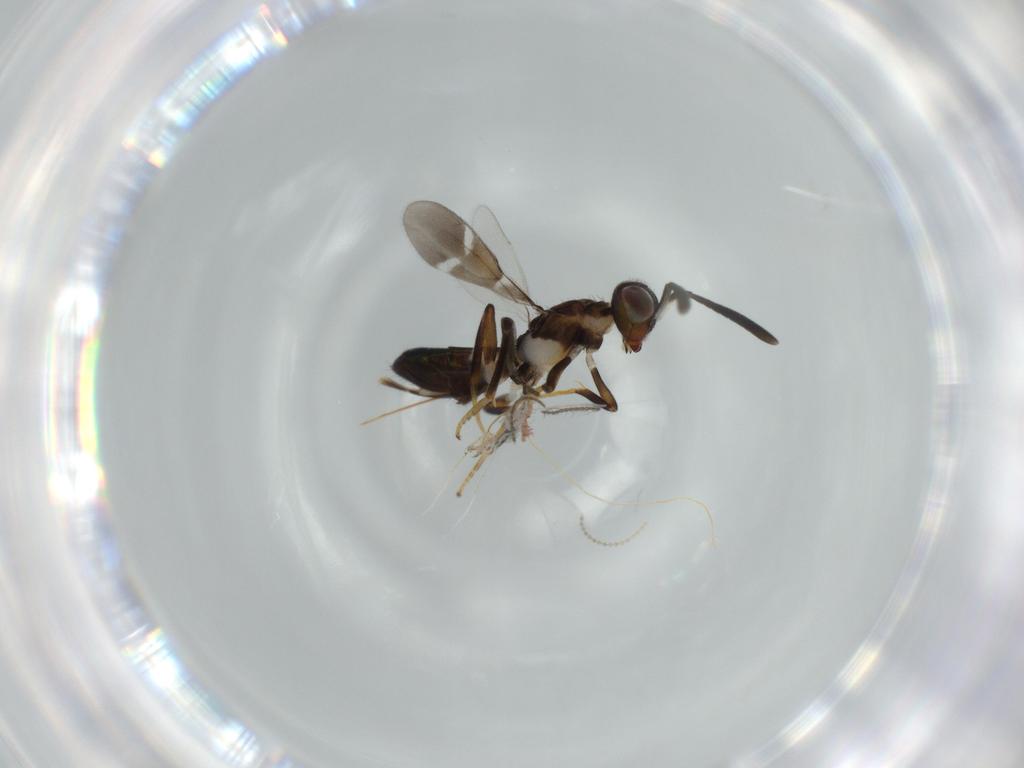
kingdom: Animalia
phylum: Arthropoda
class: Insecta
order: Hymenoptera
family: Eupelmidae
